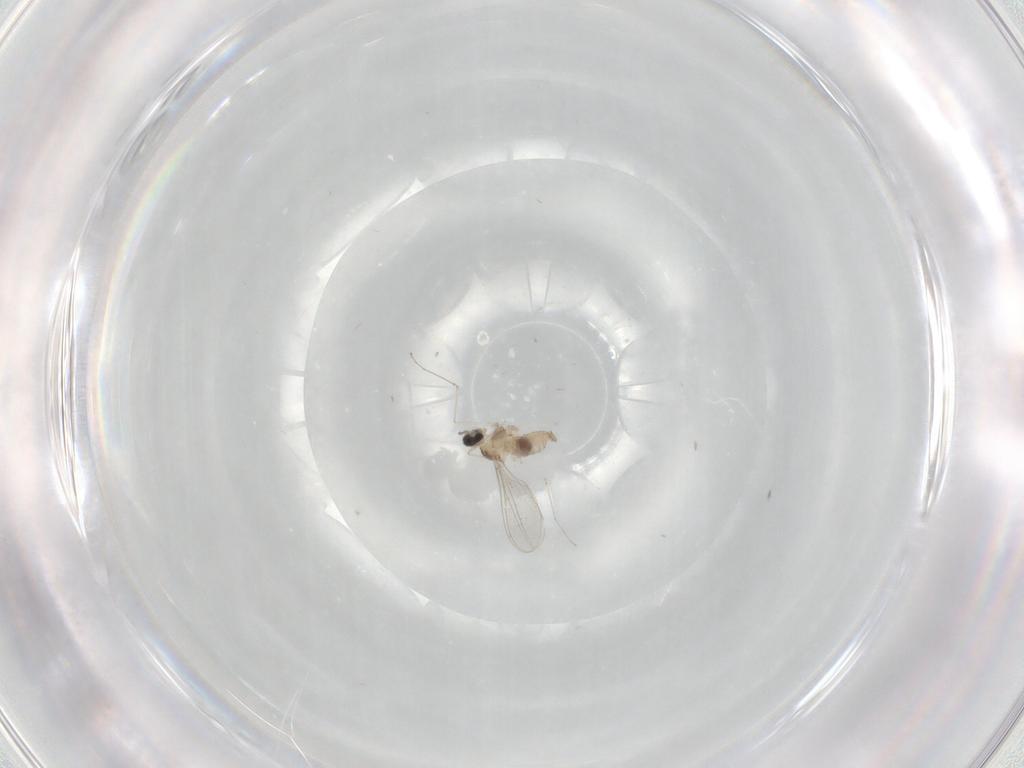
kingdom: Animalia
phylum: Arthropoda
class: Insecta
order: Diptera
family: Cecidomyiidae
